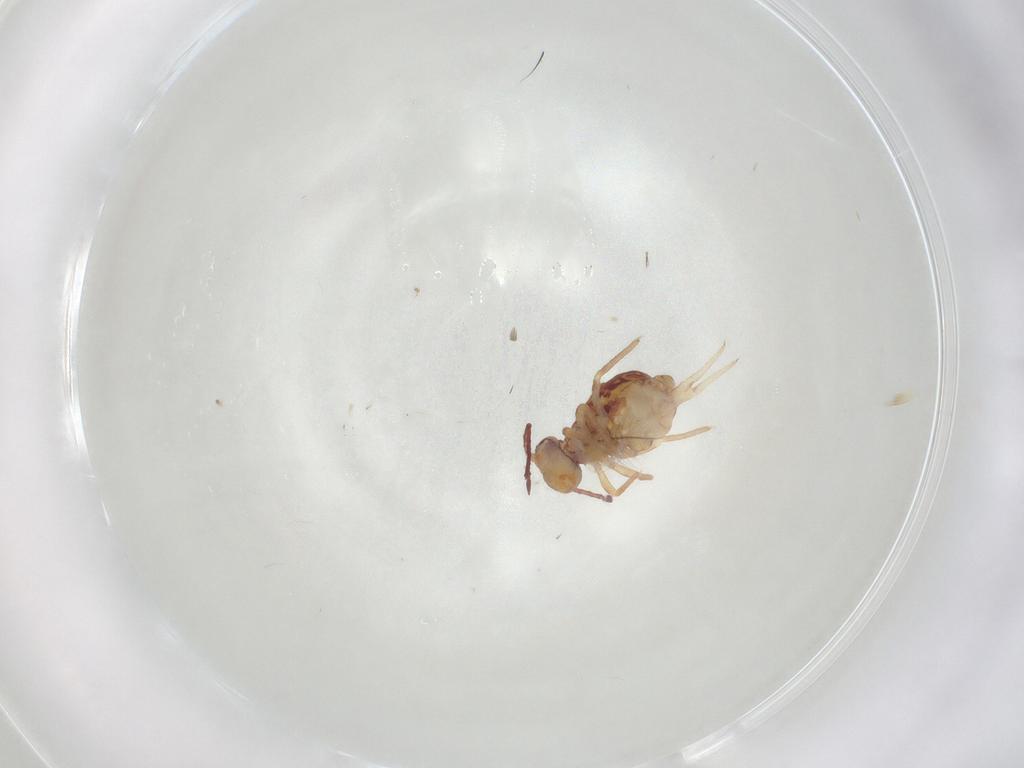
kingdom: Animalia
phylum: Arthropoda
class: Collembola
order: Symphypleona
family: Dicyrtomidae
